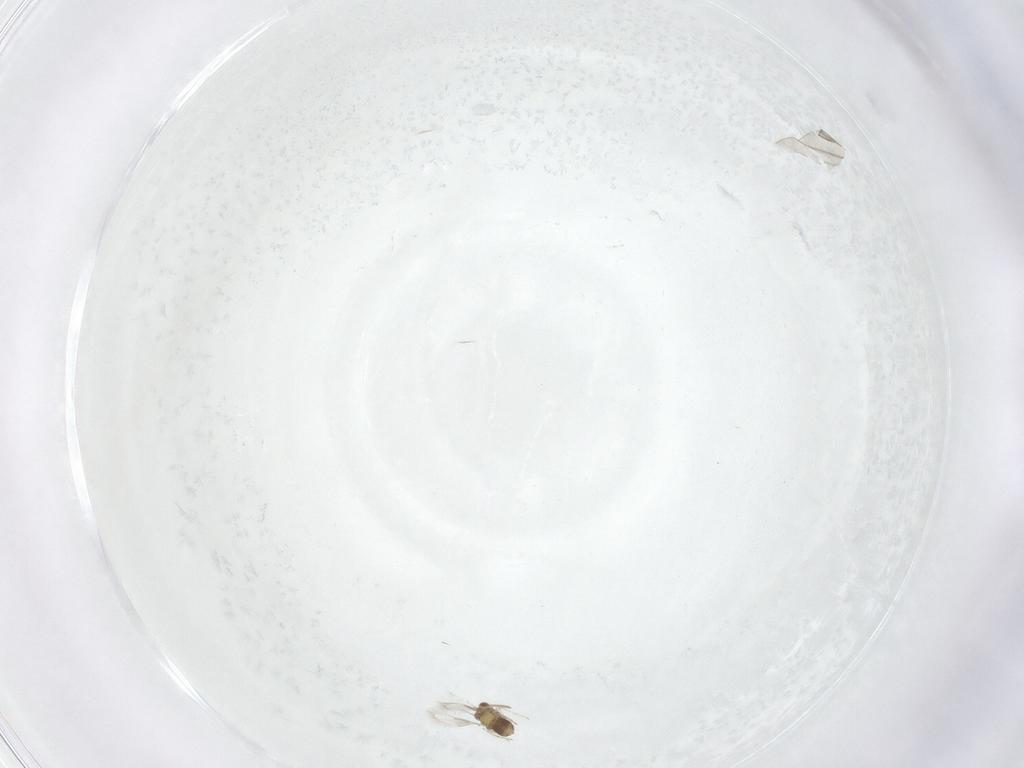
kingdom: Animalia
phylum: Arthropoda
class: Insecta
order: Diptera
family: Sciaridae
